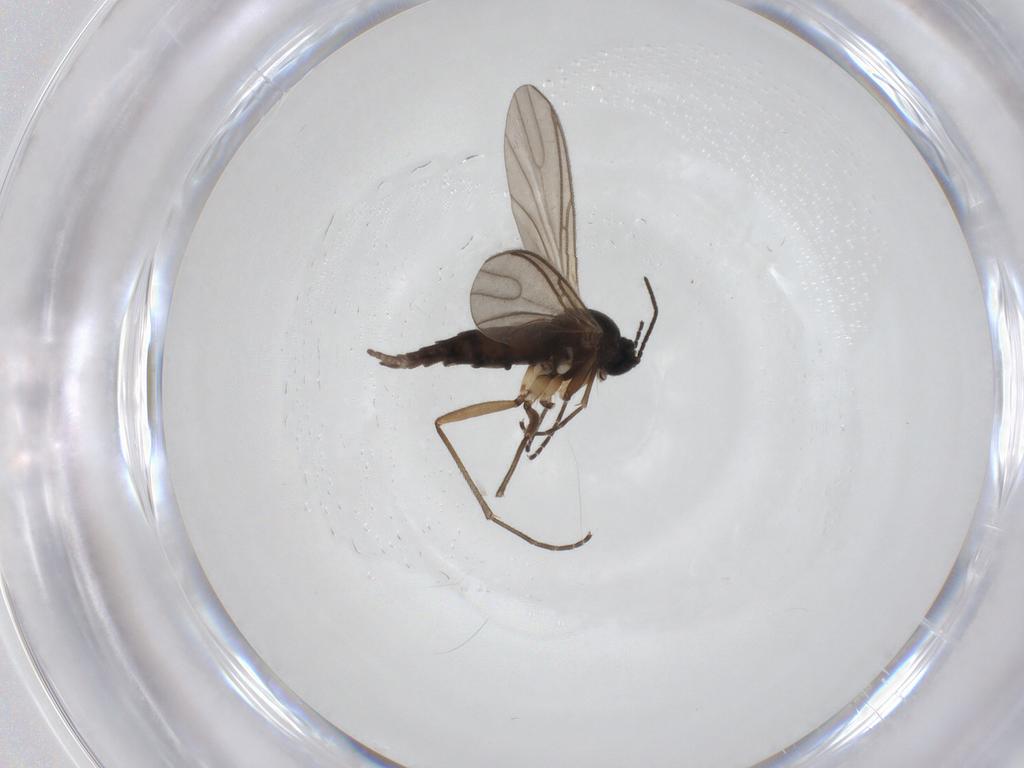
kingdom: Animalia
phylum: Arthropoda
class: Insecta
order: Diptera
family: Sciaridae
